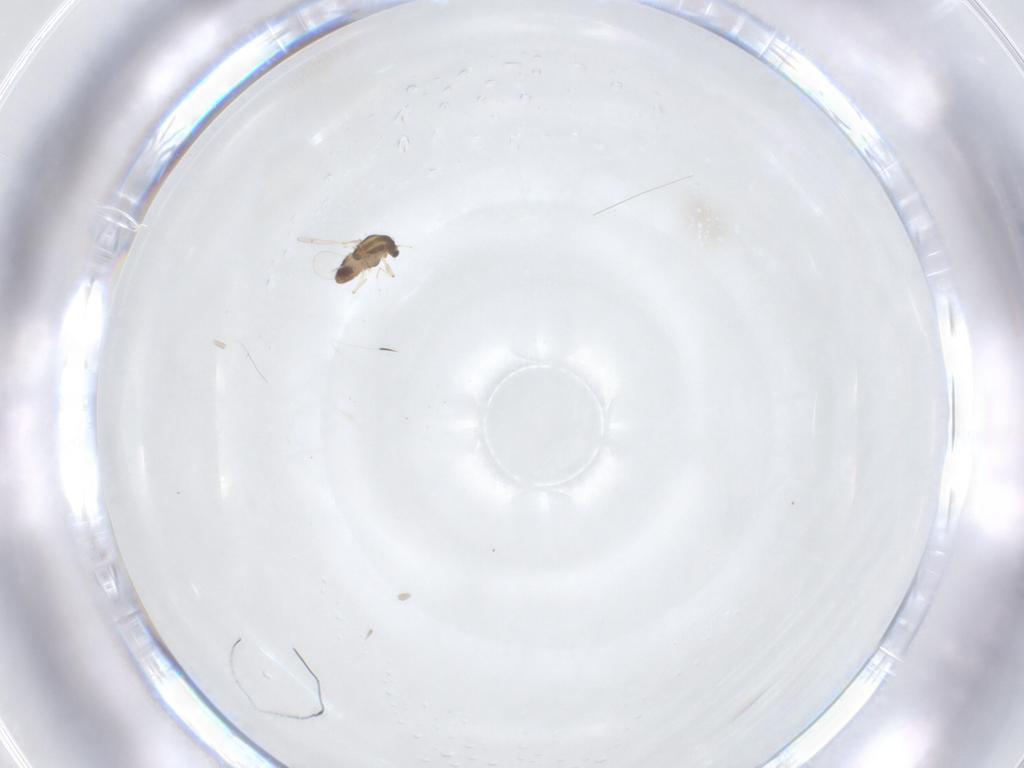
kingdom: Animalia
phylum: Arthropoda
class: Insecta
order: Diptera
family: Chironomidae
